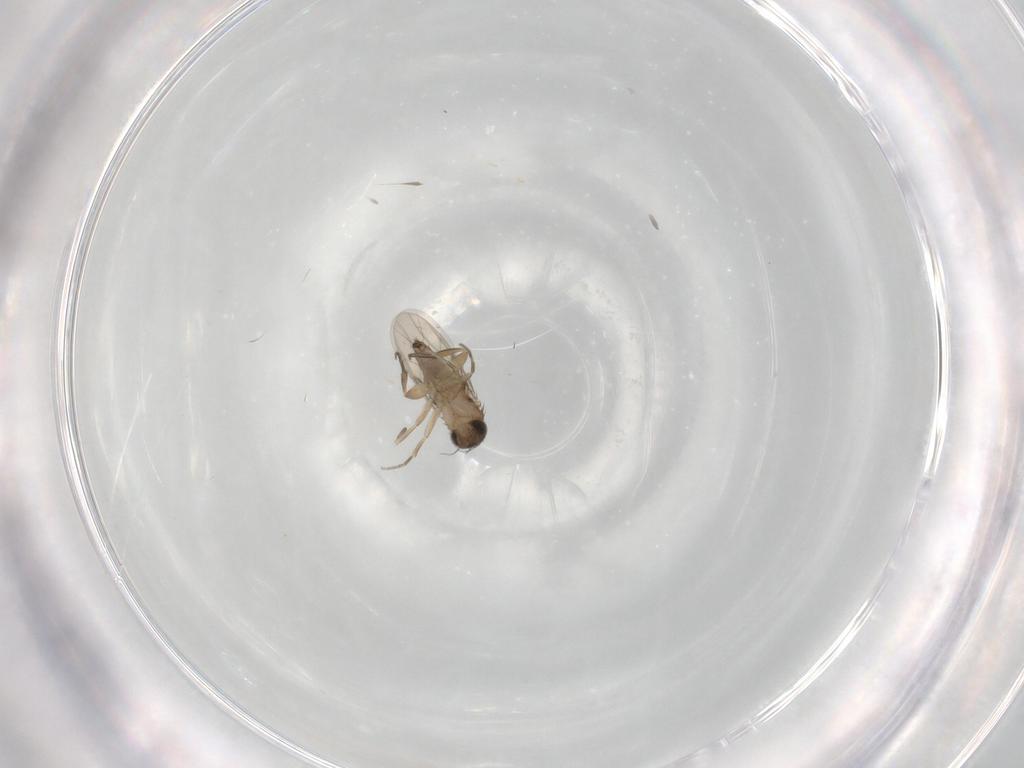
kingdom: Animalia
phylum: Arthropoda
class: Insecta
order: Diptera
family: Phoridae
